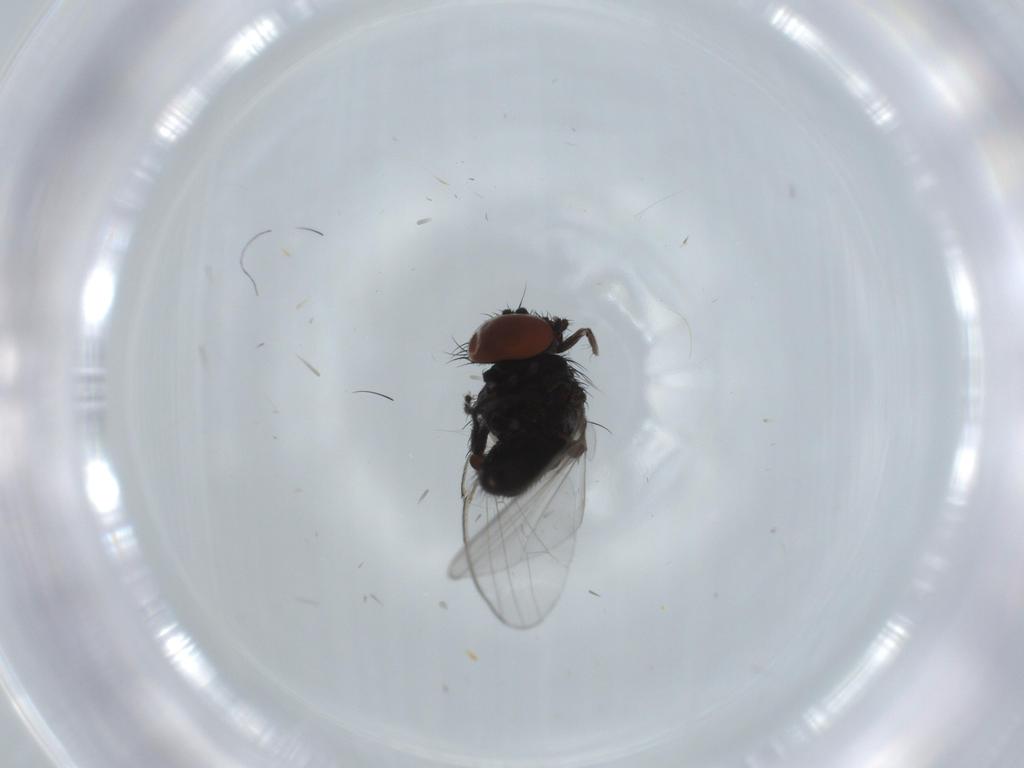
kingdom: Animalia
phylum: Arthropoda
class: Insecta
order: Diptera
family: Milichiidae
